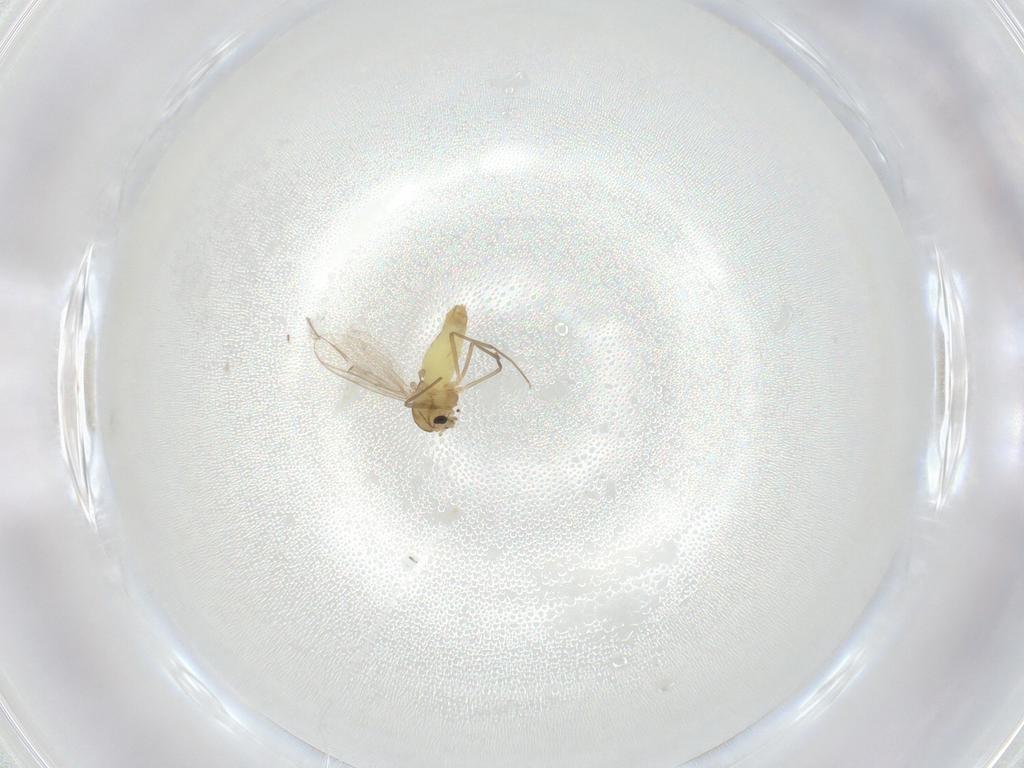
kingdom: Animalia
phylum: Arthropoda
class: Insecta
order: Diptera
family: Chironomidae
